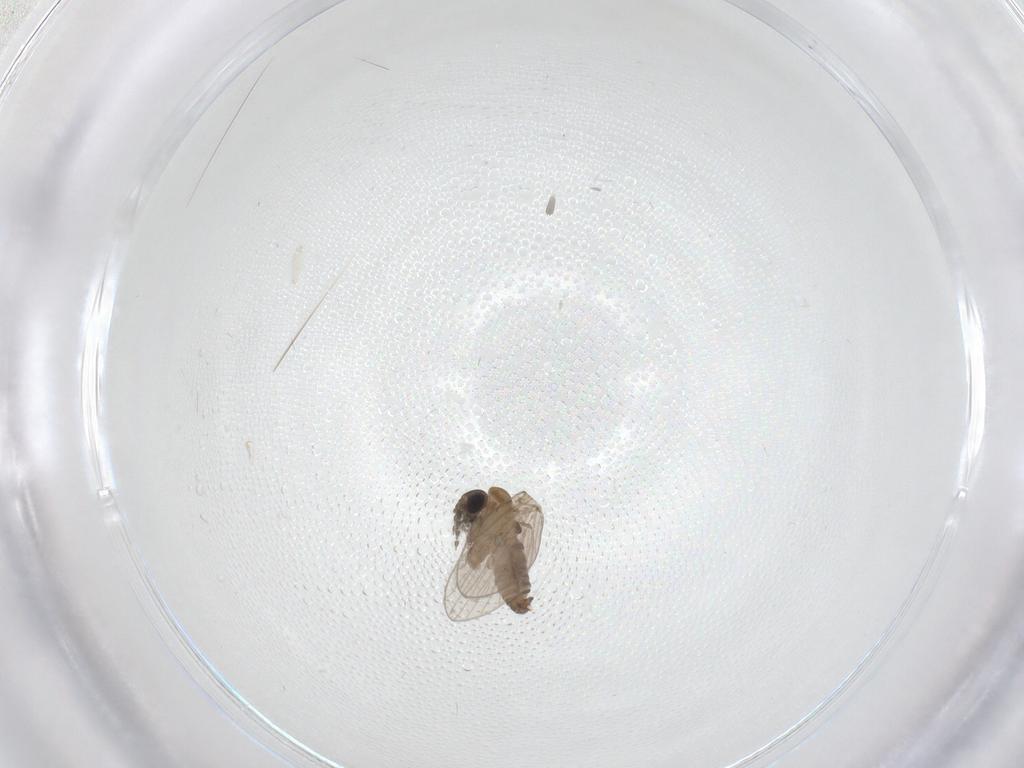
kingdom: Animalia
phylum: Arthropoda
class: Insecta
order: Diptera
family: Psychodidae
